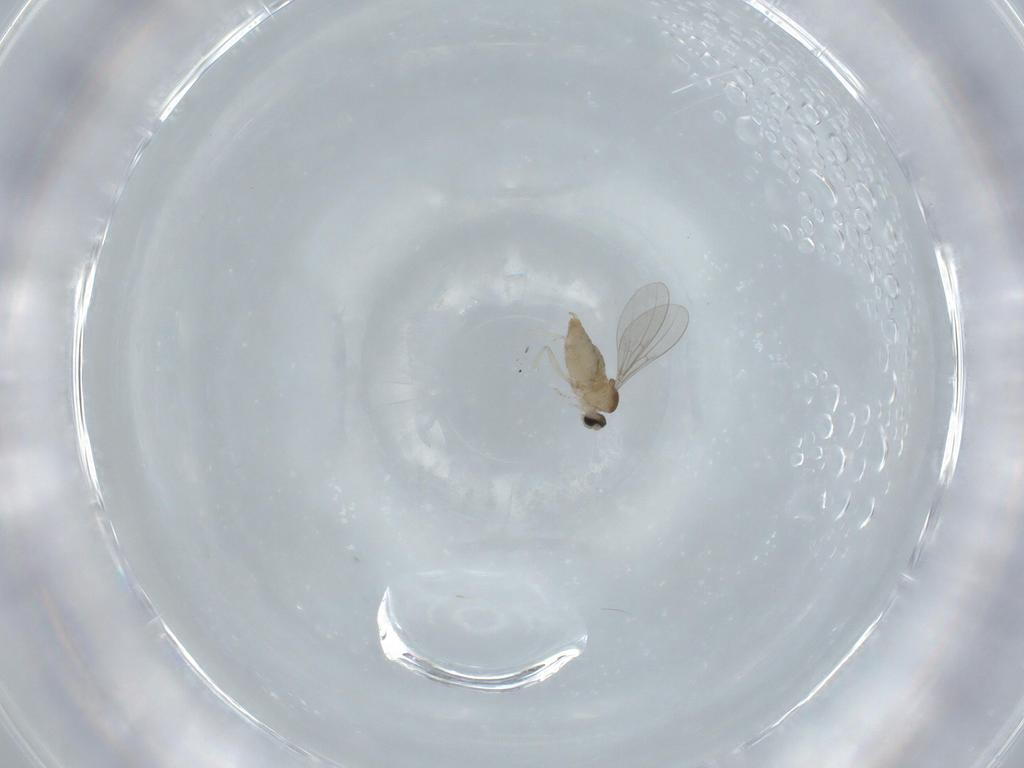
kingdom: Animalia
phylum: Arthropoda
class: Insecta
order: Diptera
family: Cecidomyiidae
